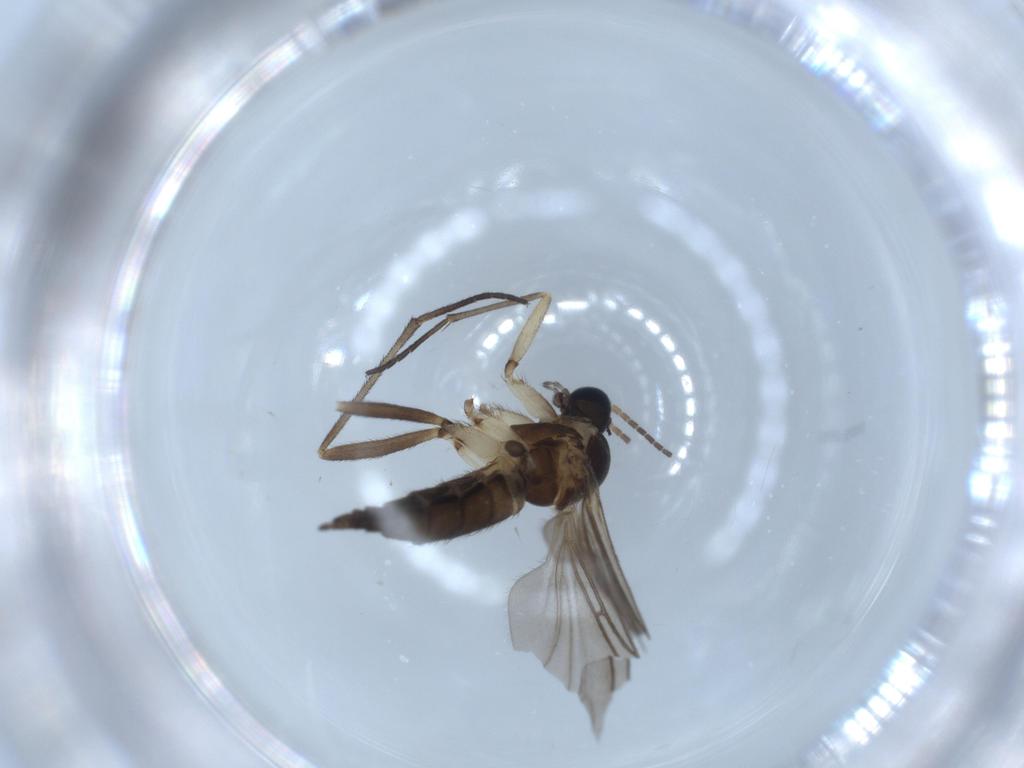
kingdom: Animalia
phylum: Arthropoda
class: Insecta
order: Diptera
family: Sciaridae
